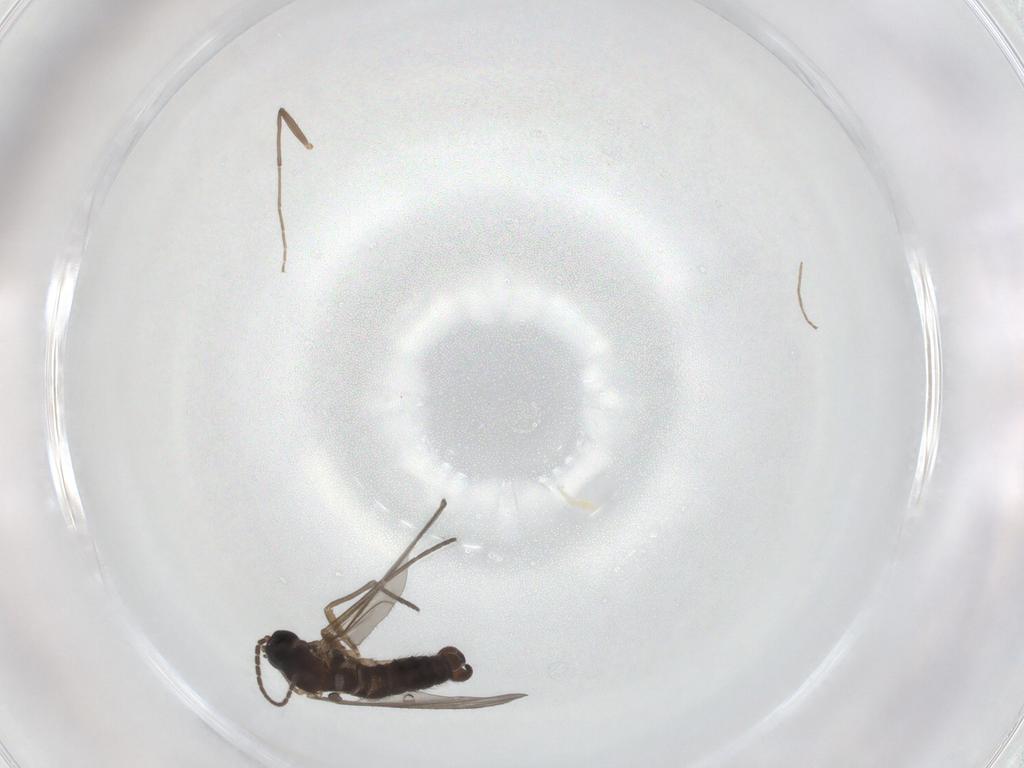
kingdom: Animalia
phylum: Arthropoda
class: Insecta
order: Diptera
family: Sciaridae
